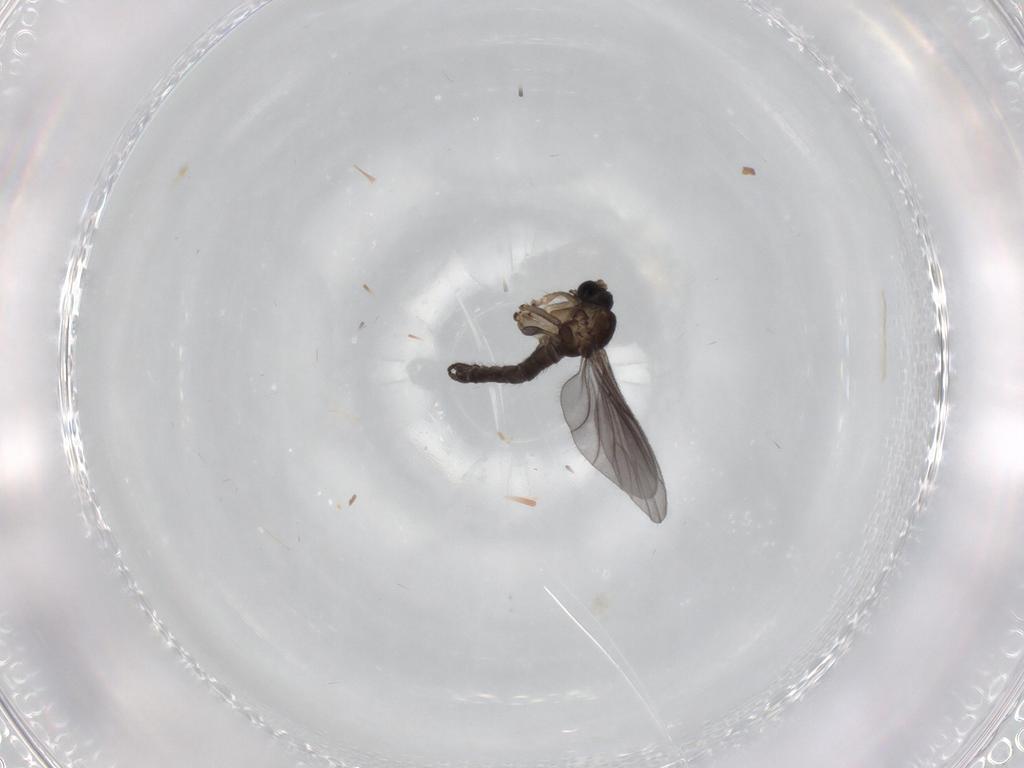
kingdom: Animalia
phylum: Arthropoda
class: Insecta
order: Diptera
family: Sciaridae
